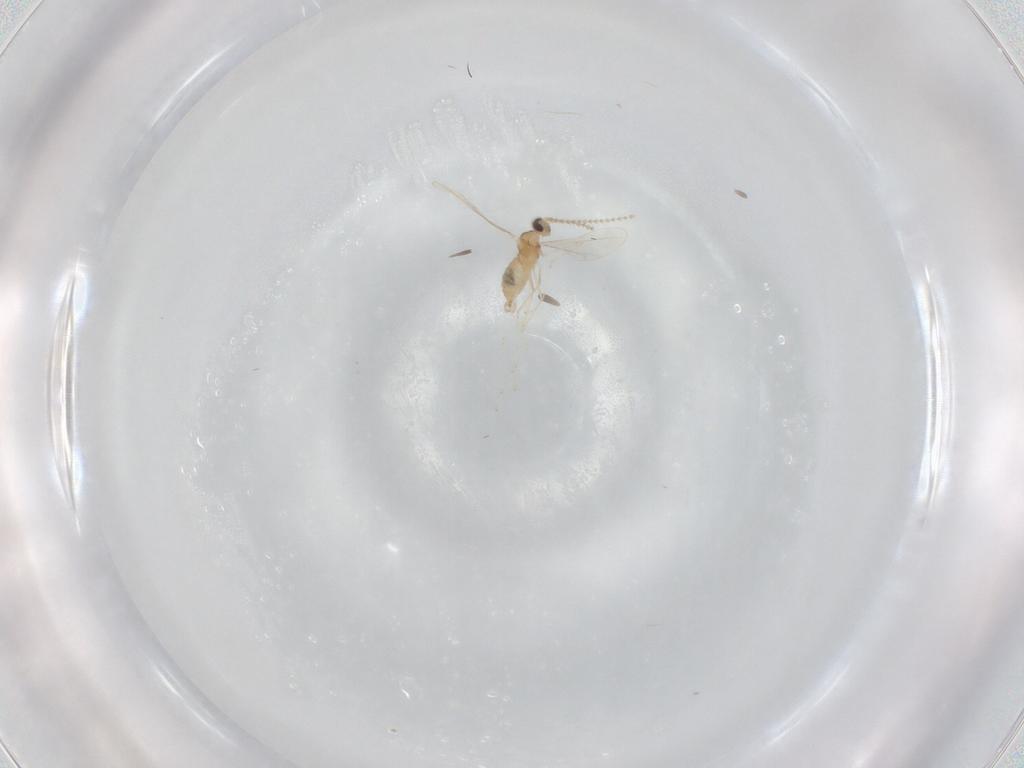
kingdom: Animalia
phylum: Arthropoda
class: Insecta
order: Diptera
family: Cecidomyiidae
